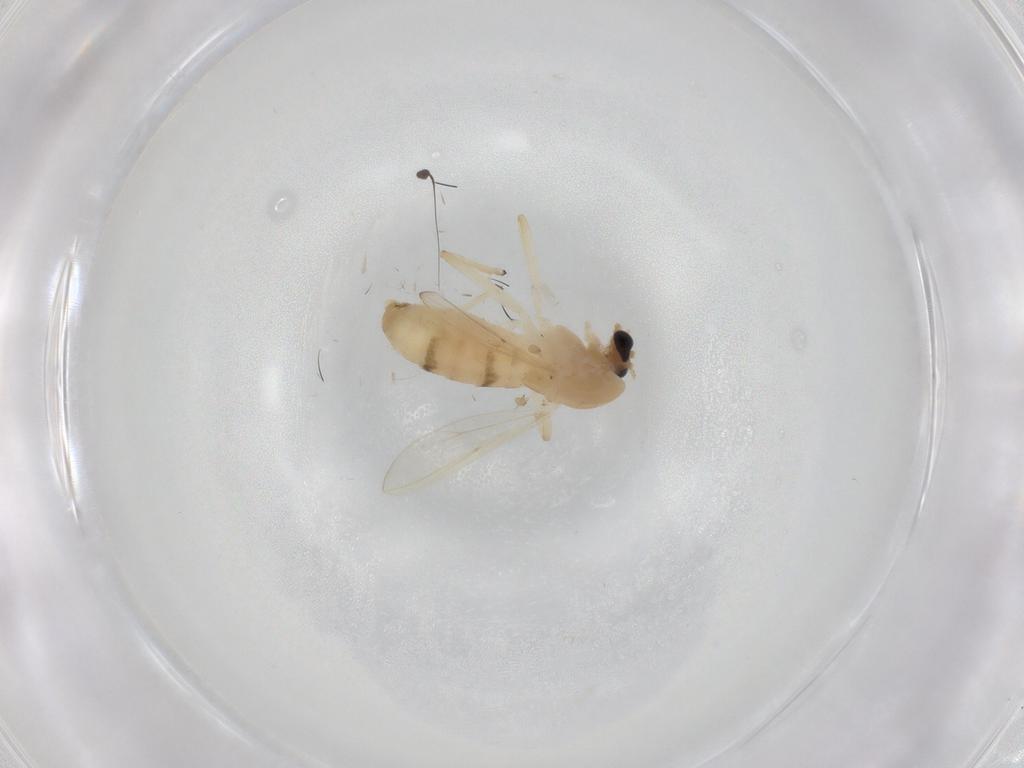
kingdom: Animalia
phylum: Arthropoda
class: Insecta
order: Diptera
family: Chironomidae
